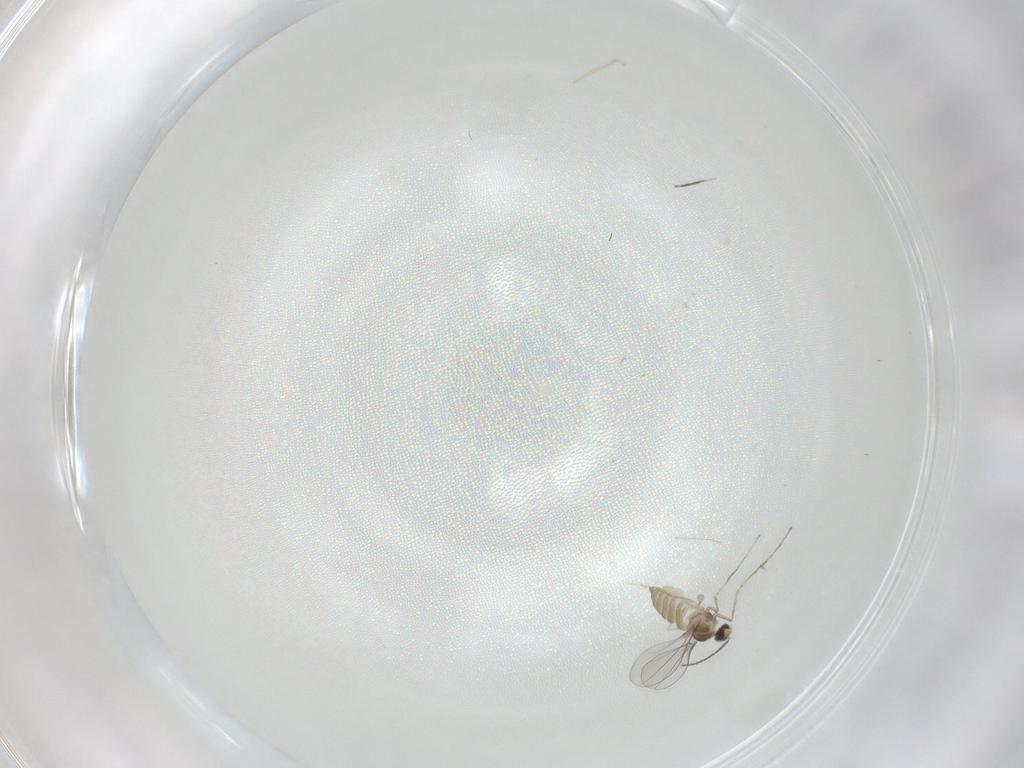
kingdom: Animalia
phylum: Arthropoda
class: Insecta
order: Diptera
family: Cecidomyiidae
